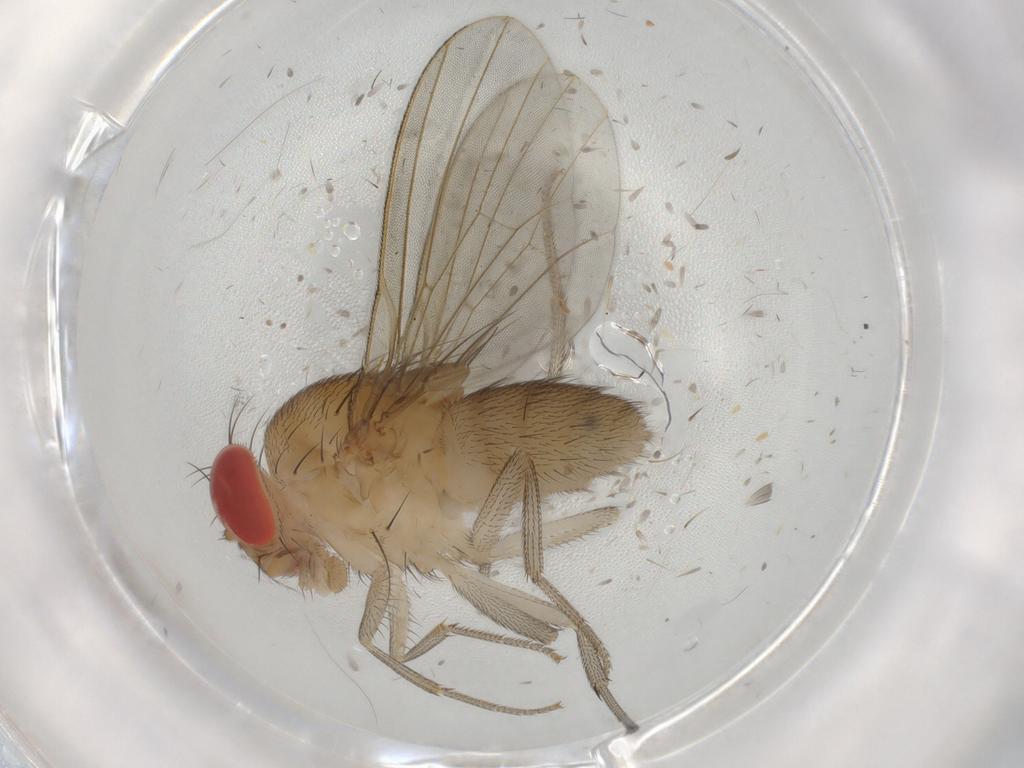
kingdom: Animalia
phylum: Arthropoda
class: Insecta
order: Diptera
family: Drosophilidae
